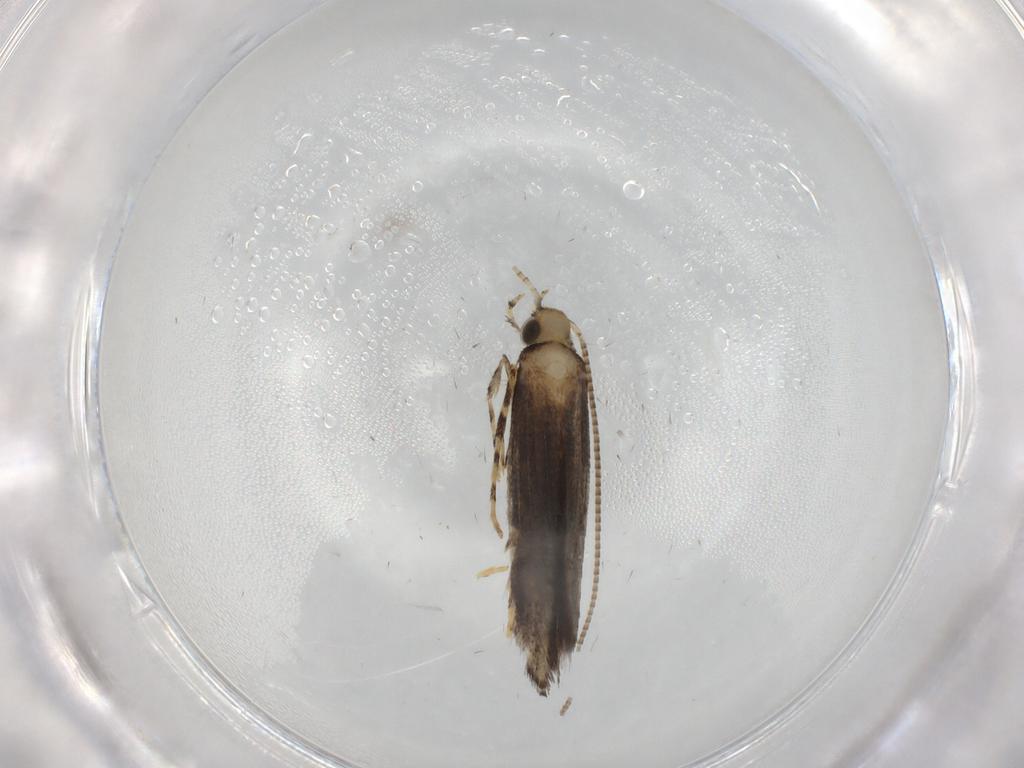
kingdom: Animalia
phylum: Arthropoda
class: Insecta
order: Lepidoptera
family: Gracillariidae
